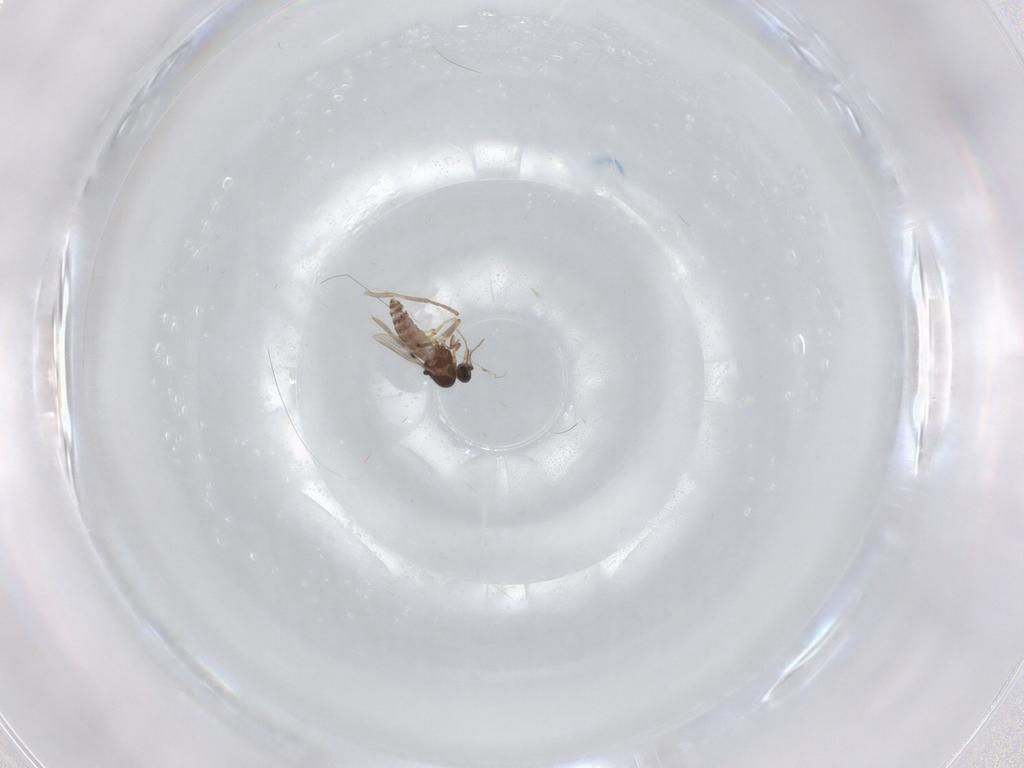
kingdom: Animalia
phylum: Arthropoda
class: Insecta
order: Diptera
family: Psychodidae
